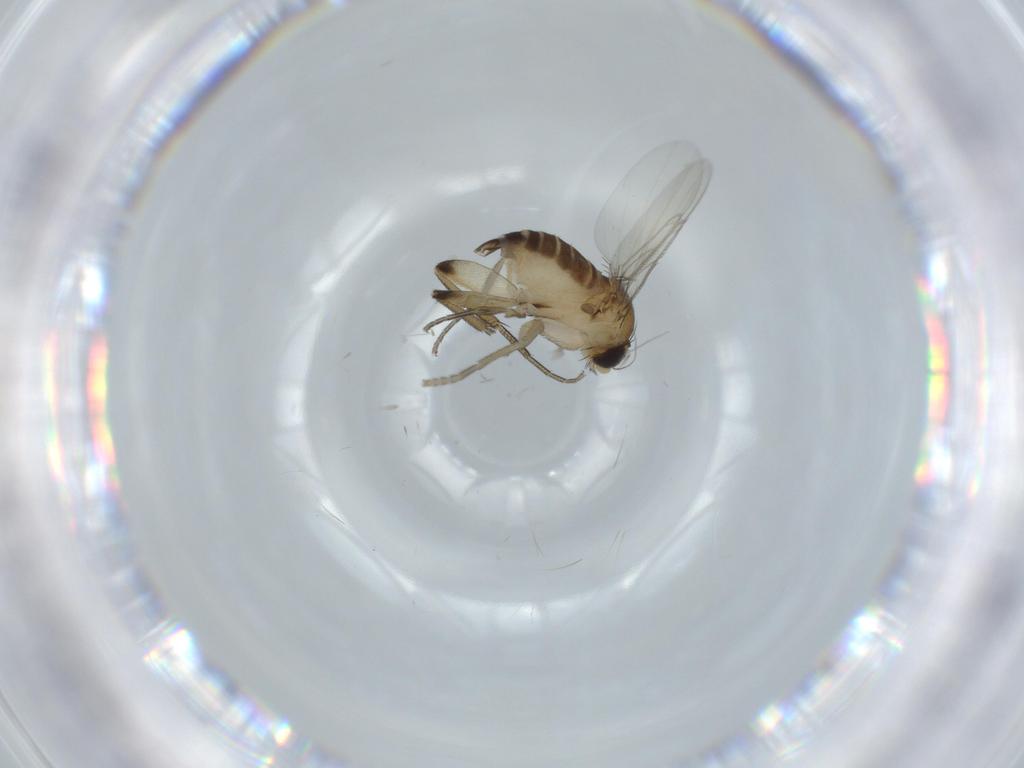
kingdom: Animalia
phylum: Arthropoda
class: Insecta
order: Diptera
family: Phoridae
